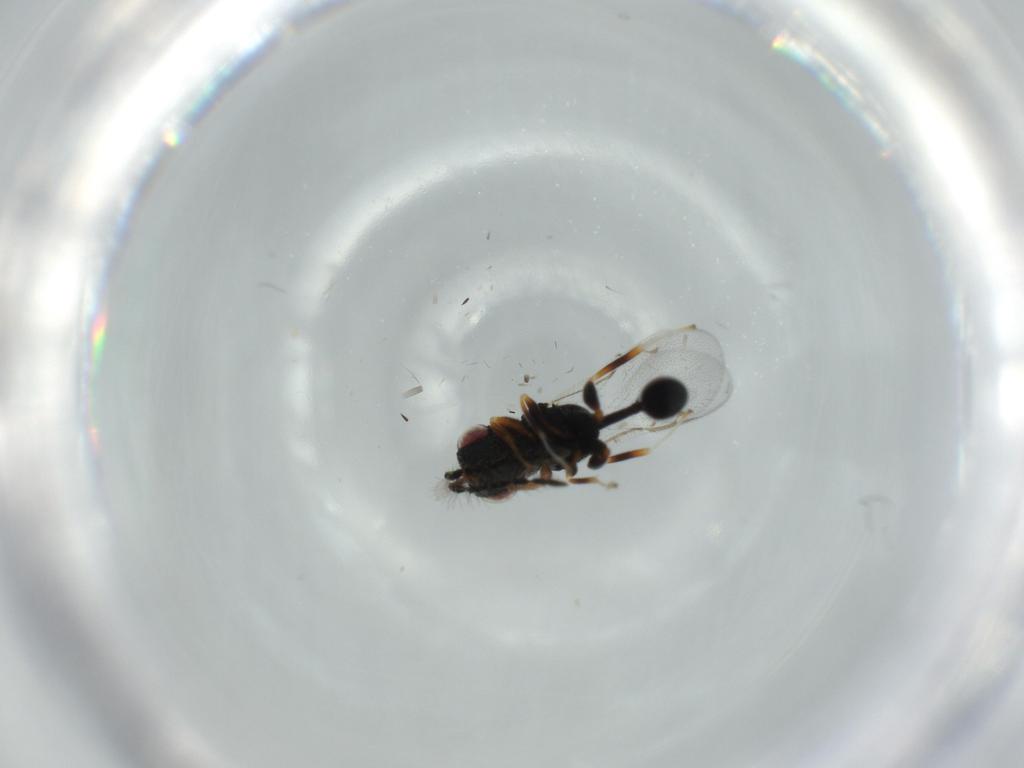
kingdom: Animalia
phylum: Arthropoda
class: Insecta
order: Hymenoptera
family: Eurytomidae
